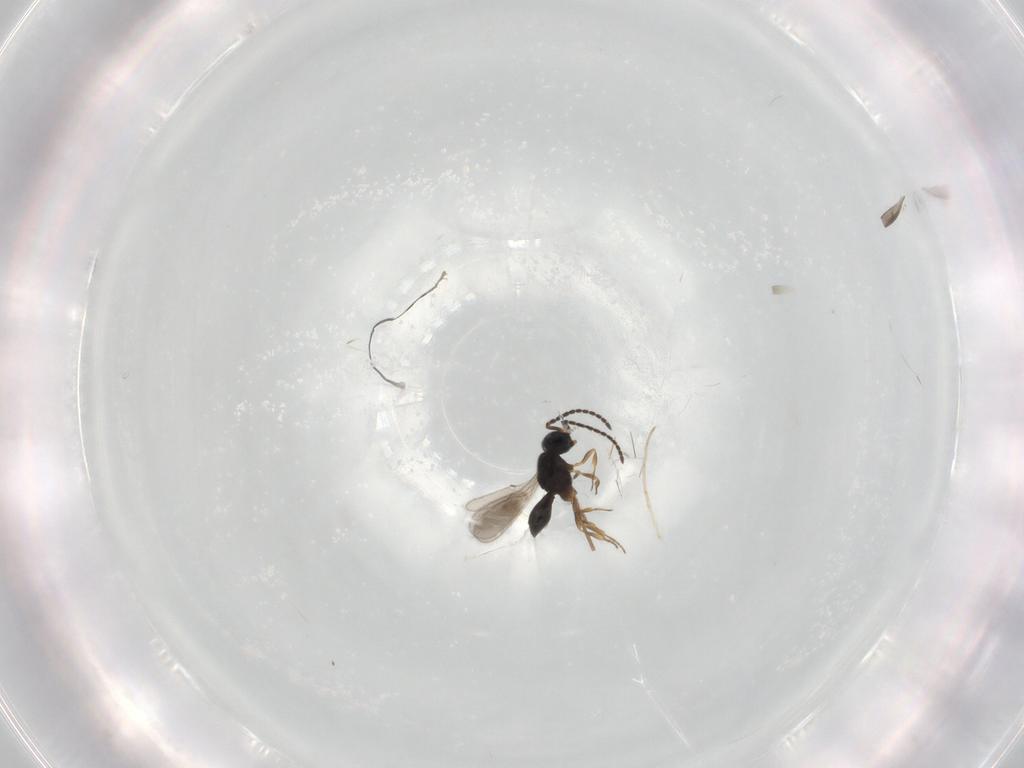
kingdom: Animalia
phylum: Arthropoda
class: Insecta
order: Hymenoptera
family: Scelionidae
